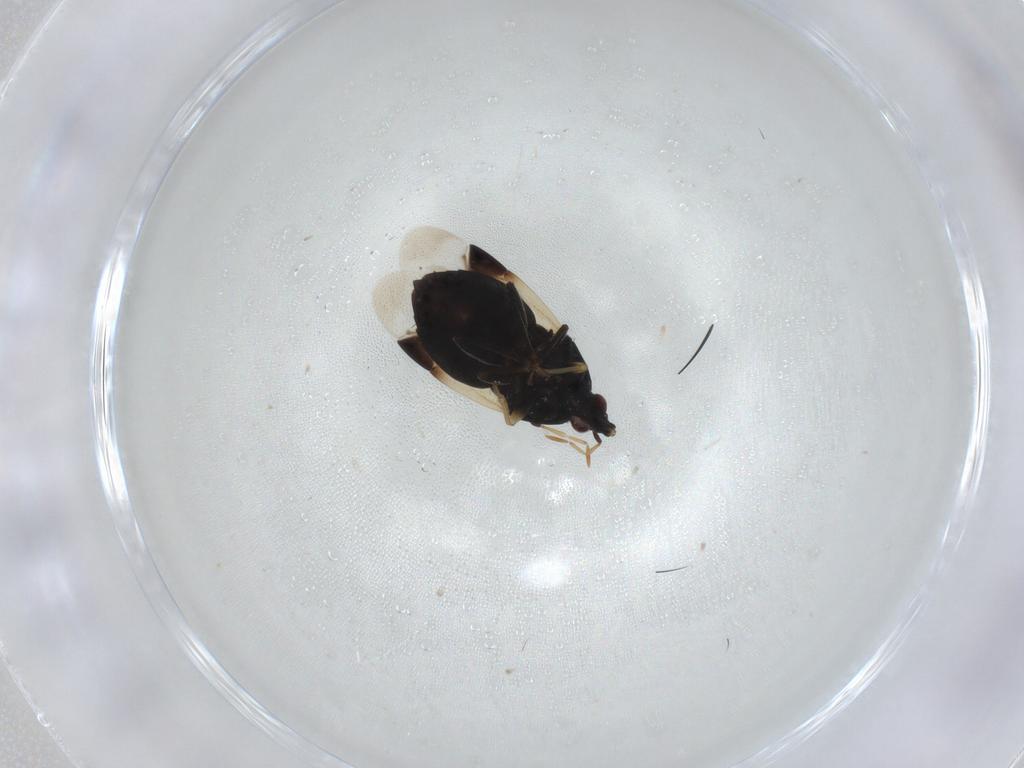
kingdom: Animalia
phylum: Arthropoda
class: Insecta
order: Hemiptera
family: Anthocoridae
